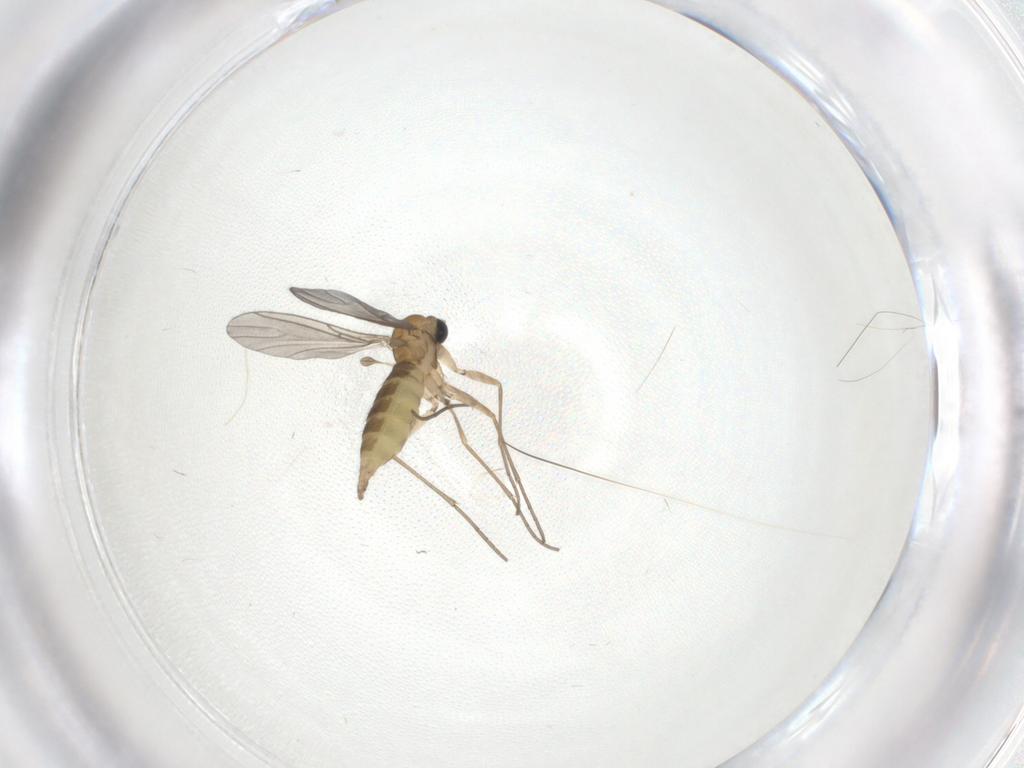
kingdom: Animalia
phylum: Arthropoda
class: Insecta
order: Diptera
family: Sciaridae
